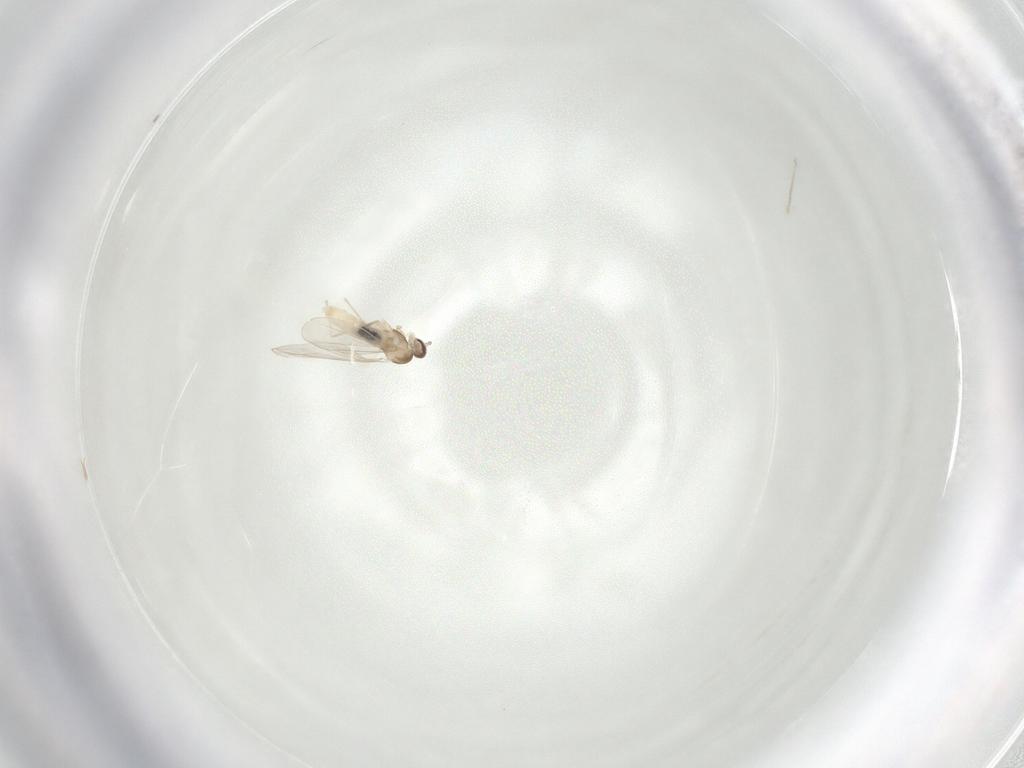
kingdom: Animalia
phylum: Arthropoda
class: Insecta
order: Diptera
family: Cecidomyiidae
